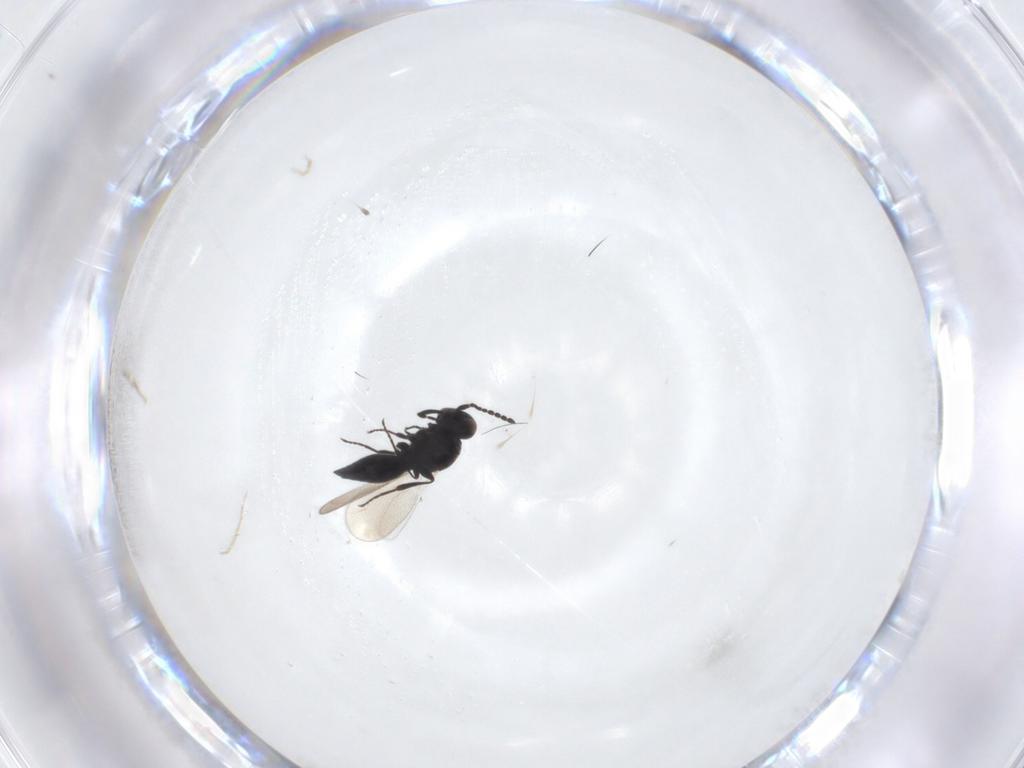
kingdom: Animalia
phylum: Arthropoda
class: Insecta
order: Hymenoptera
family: Platygastridae
